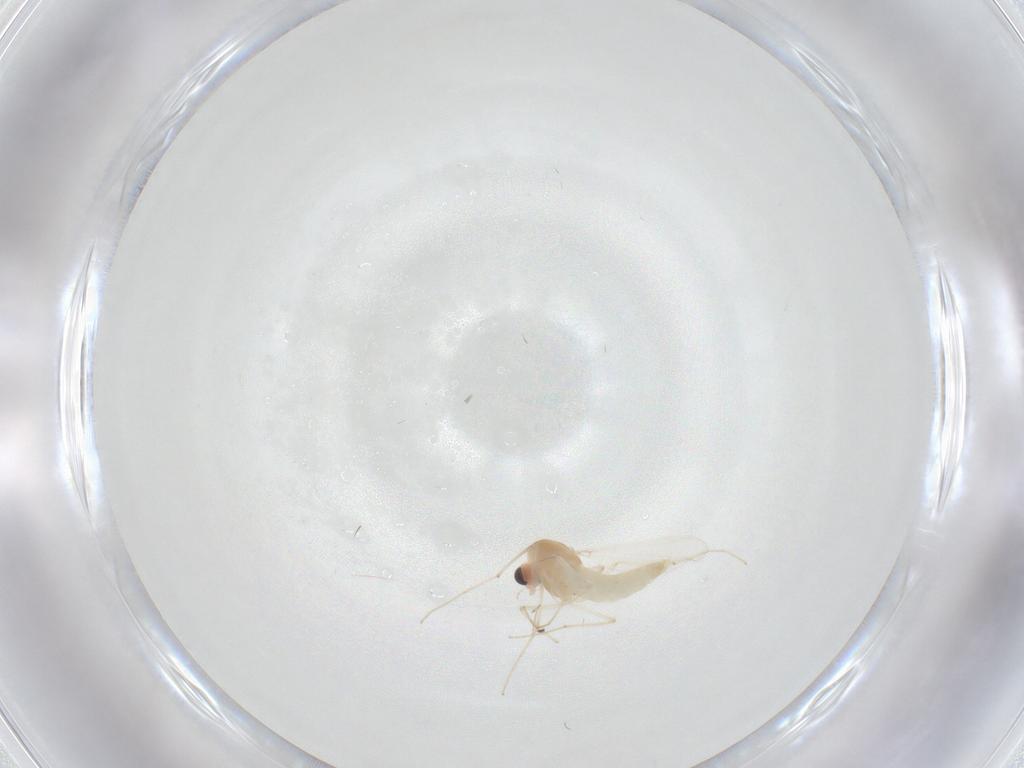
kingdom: Animalia
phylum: Arthropoda
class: Insecta
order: Diptera
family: Chironomidae
